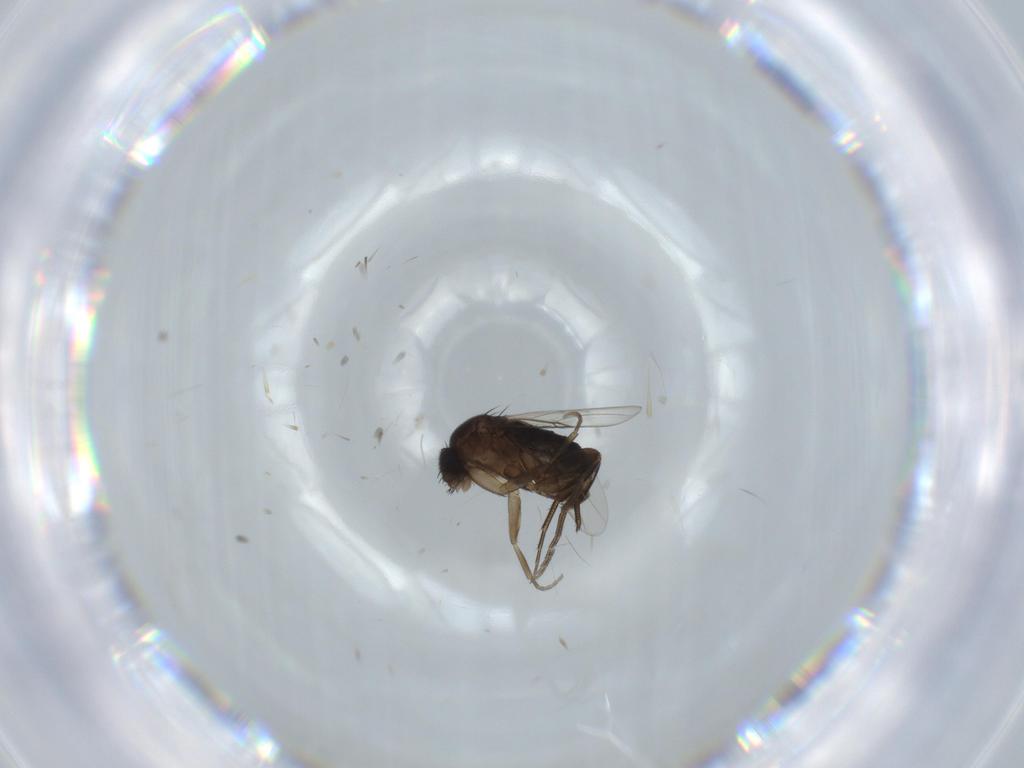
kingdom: Animalia
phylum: Arthropoda
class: Insecta
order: Diptera
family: Phoridae
